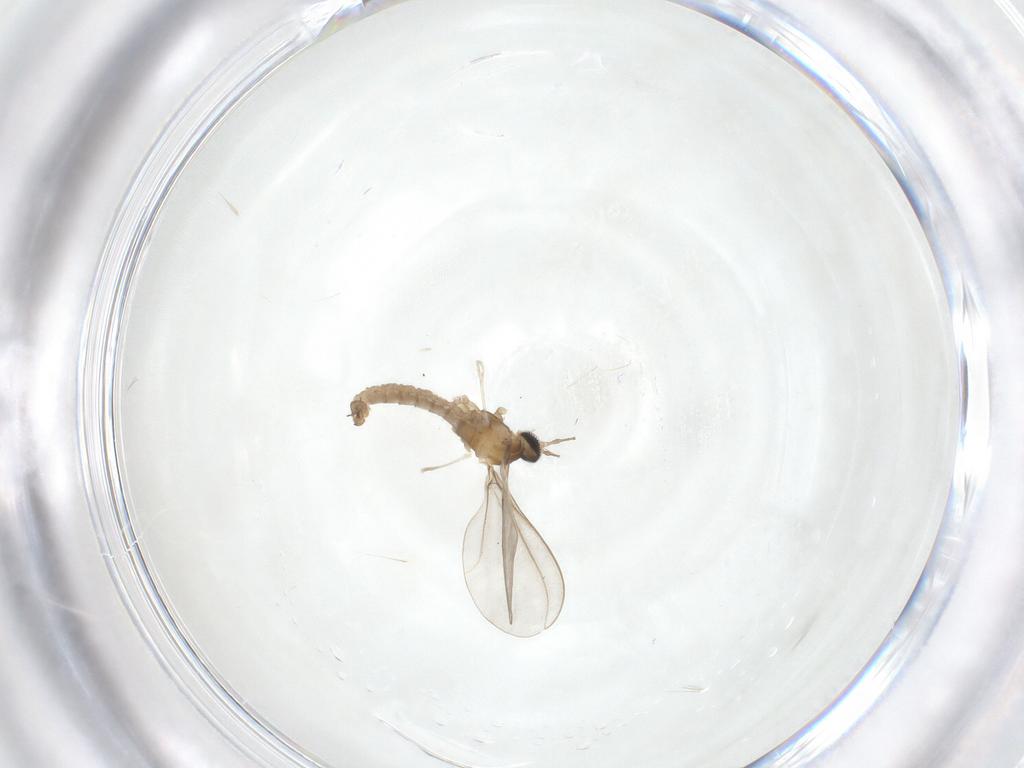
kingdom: Animalia
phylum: Arthropoda
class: Insecta
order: Diptera
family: Cecidomyiidae
